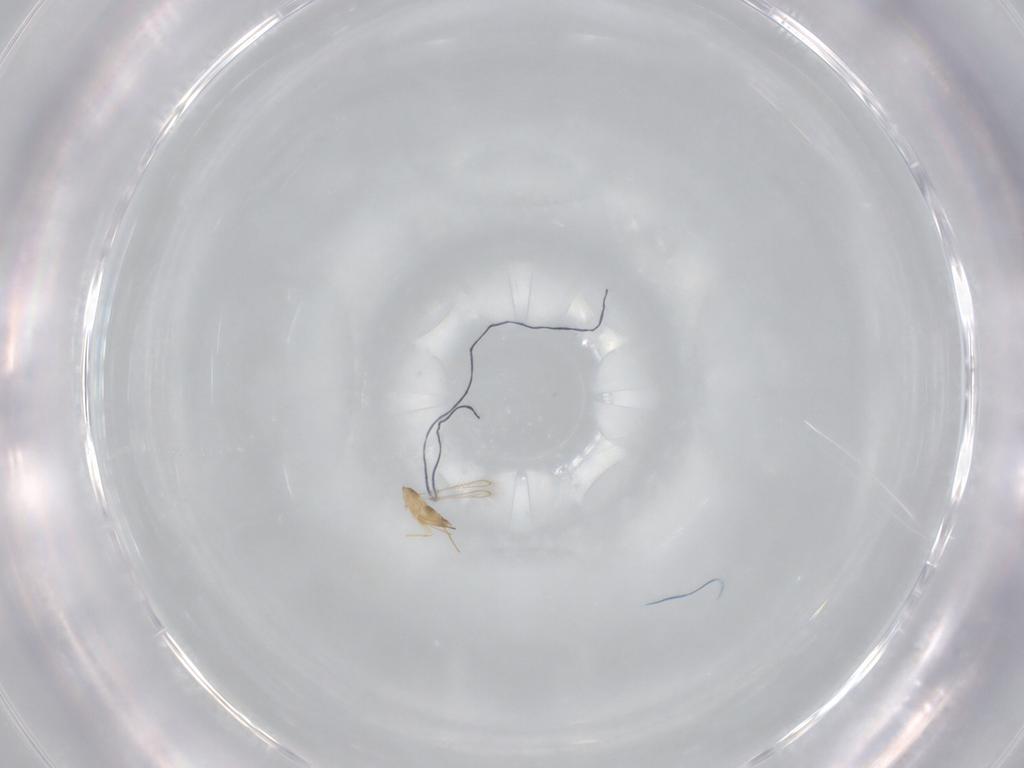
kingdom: Animalia
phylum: Arthropoda
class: Insecta
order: Hymenoptera
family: Mymaridae
